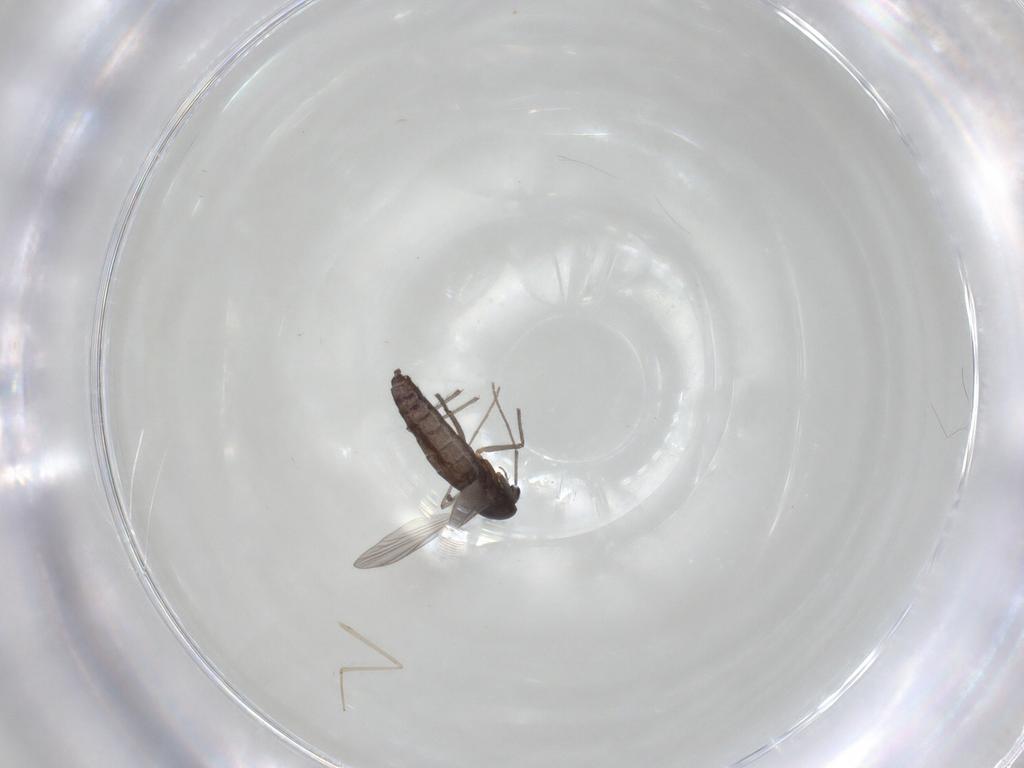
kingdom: Animalia
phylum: Arthropoda
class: Insecta
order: Diptera
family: Chironomidae
